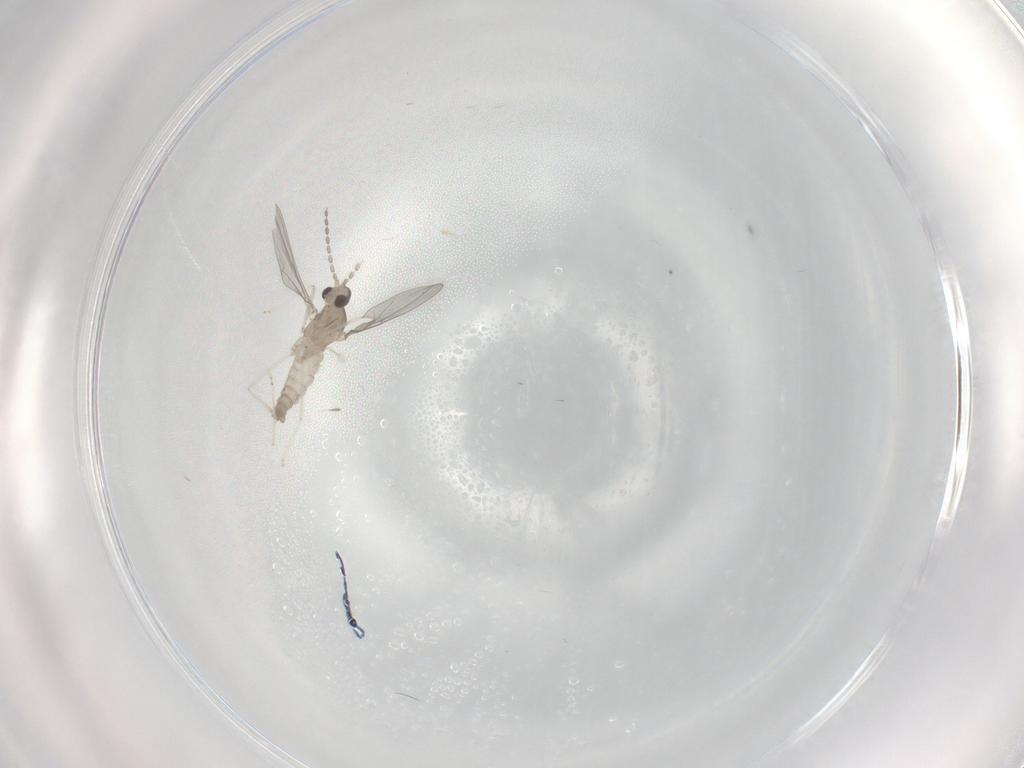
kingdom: Animalia
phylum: Arthropoda
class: Insecta
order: Diptera
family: Cecidomyiidae
